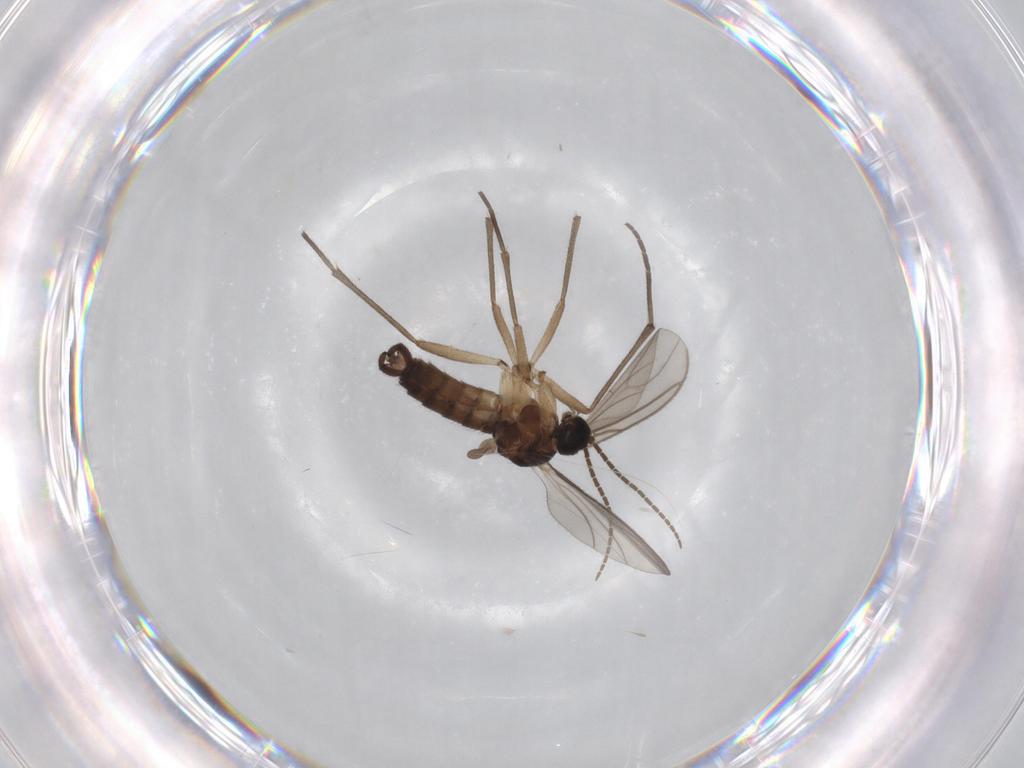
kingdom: Animalia
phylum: Arthropoda
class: Insecta
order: Diptera
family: Sciaridae
